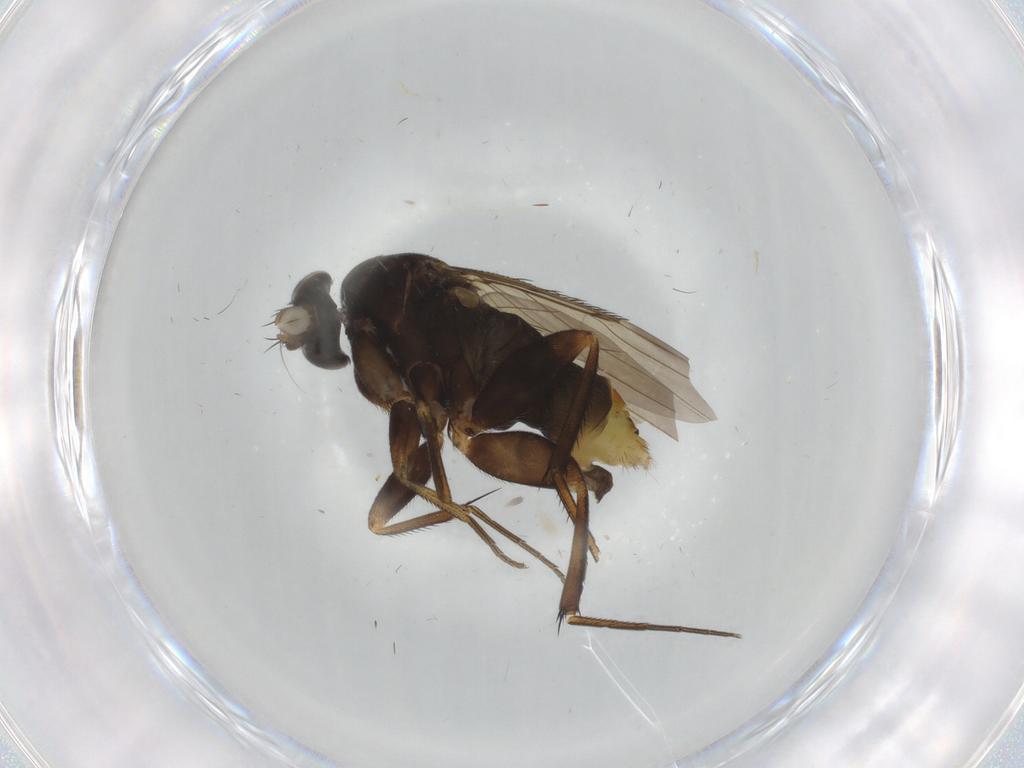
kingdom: Animalia
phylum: Arthropoda
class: Insecta
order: Diptera
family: Phoridae
